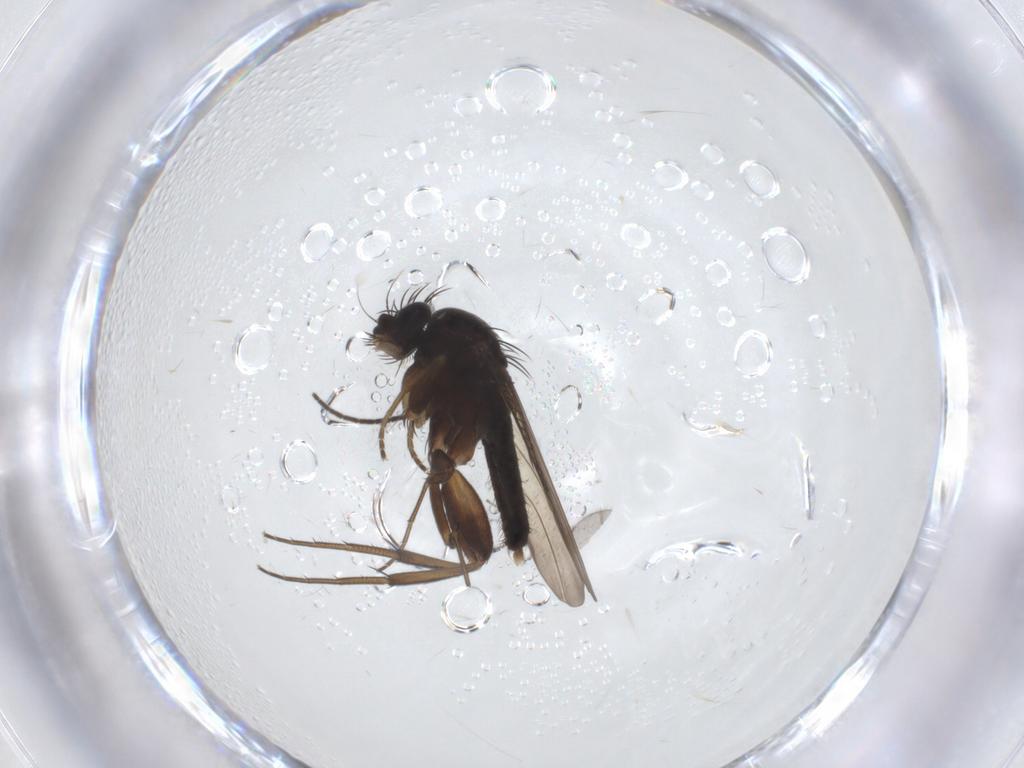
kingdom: Animalia
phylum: Arthropoda
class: Insecta
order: Diptera
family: Phoridae
